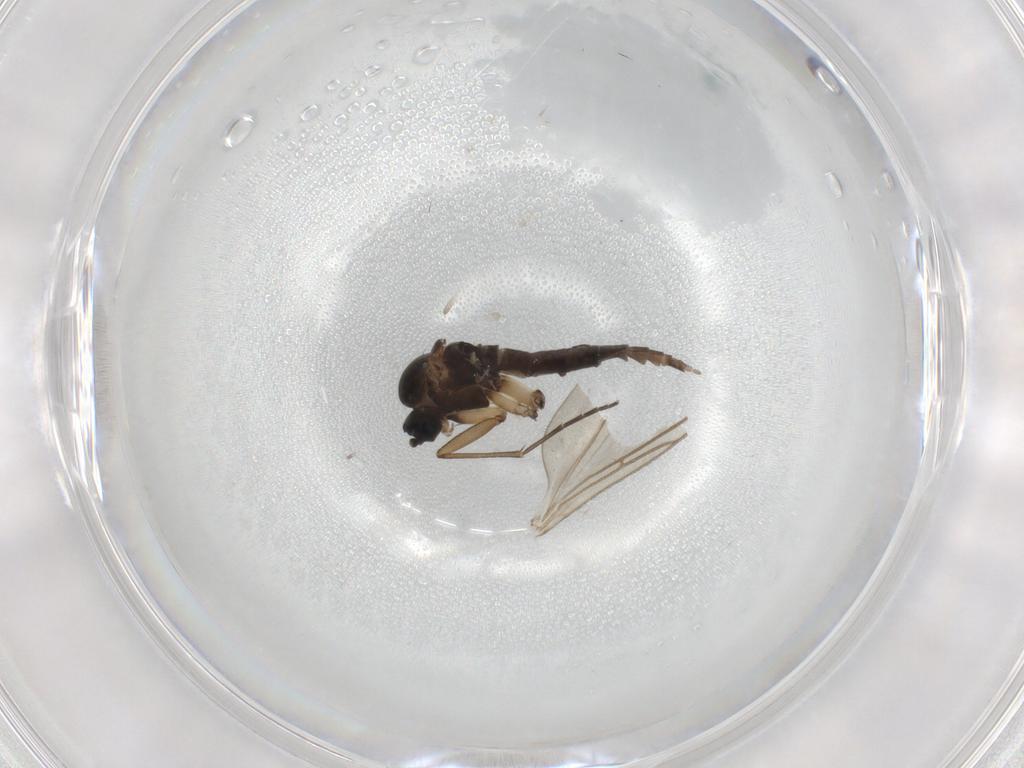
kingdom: Animalia
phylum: Arthropoda
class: Insecta
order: Diptera
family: Sciaridae
